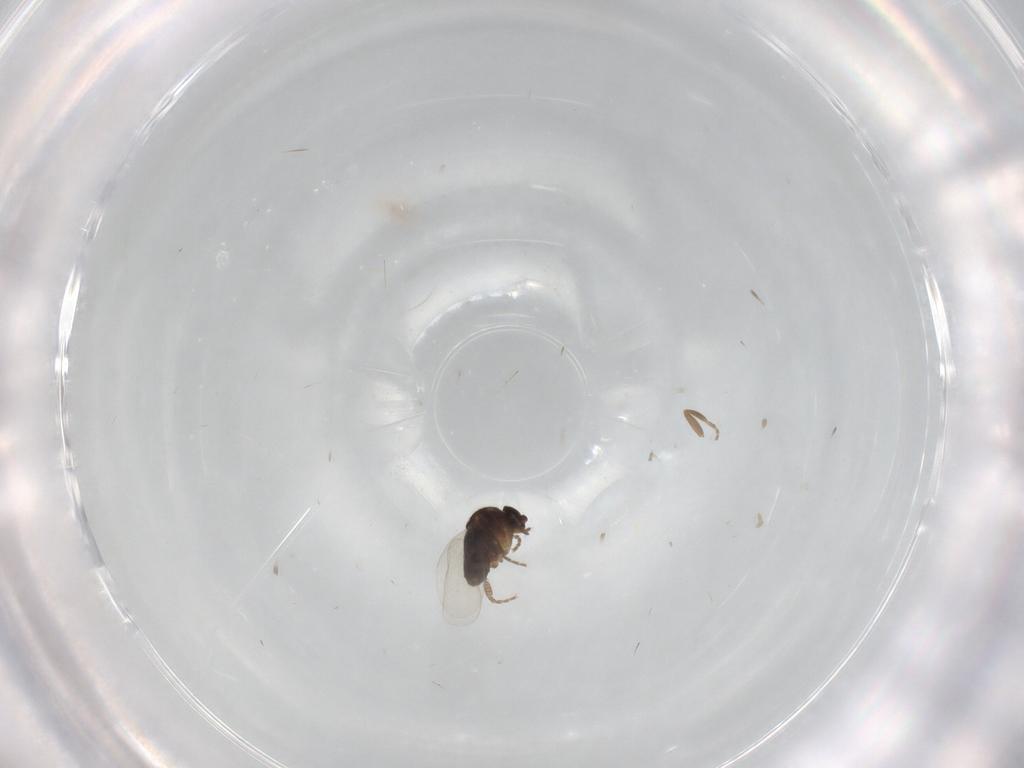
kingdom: Animalia
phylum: Arthropoda
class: Insecta
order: Diptera
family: Phoridae
